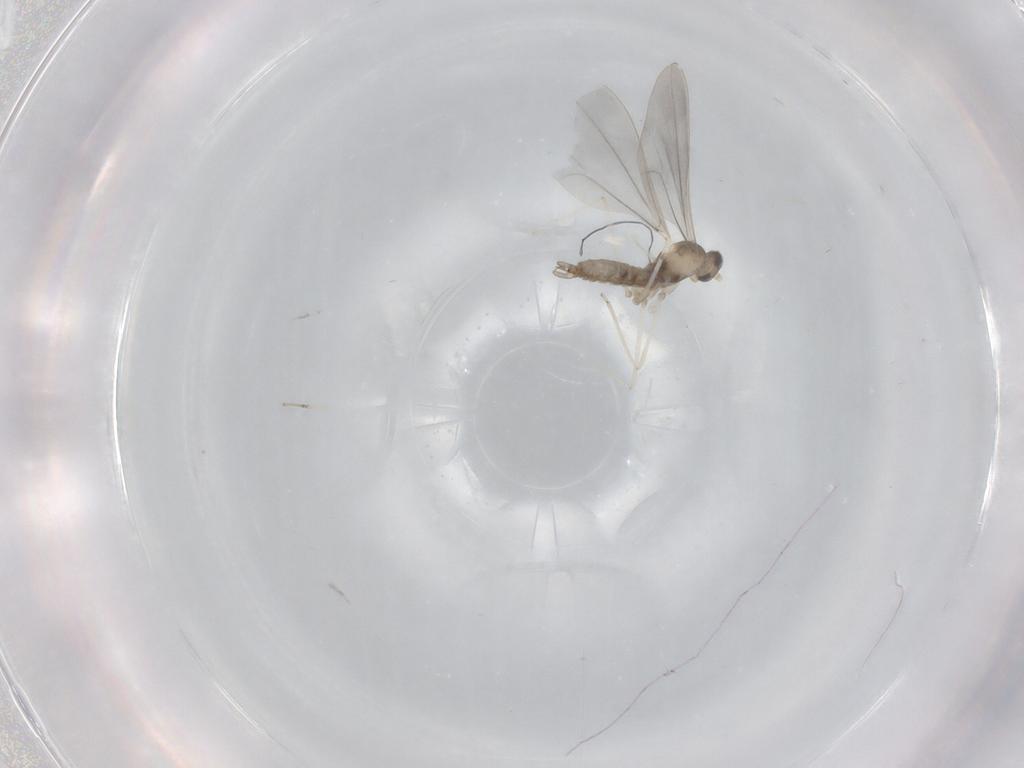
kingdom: Animalia
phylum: Arthropoda
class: Insecta
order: Diptera
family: Cecidomyiidae
